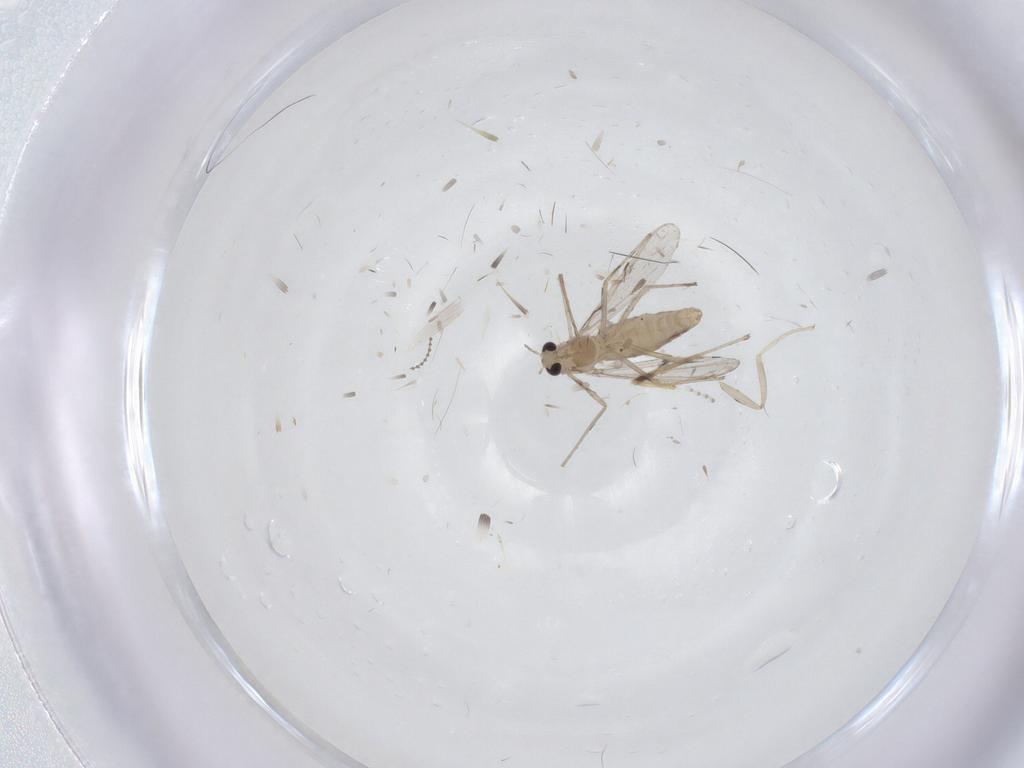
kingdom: Animalia
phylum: Arthropoda
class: Insecta
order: Diptera
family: Chironomidae
